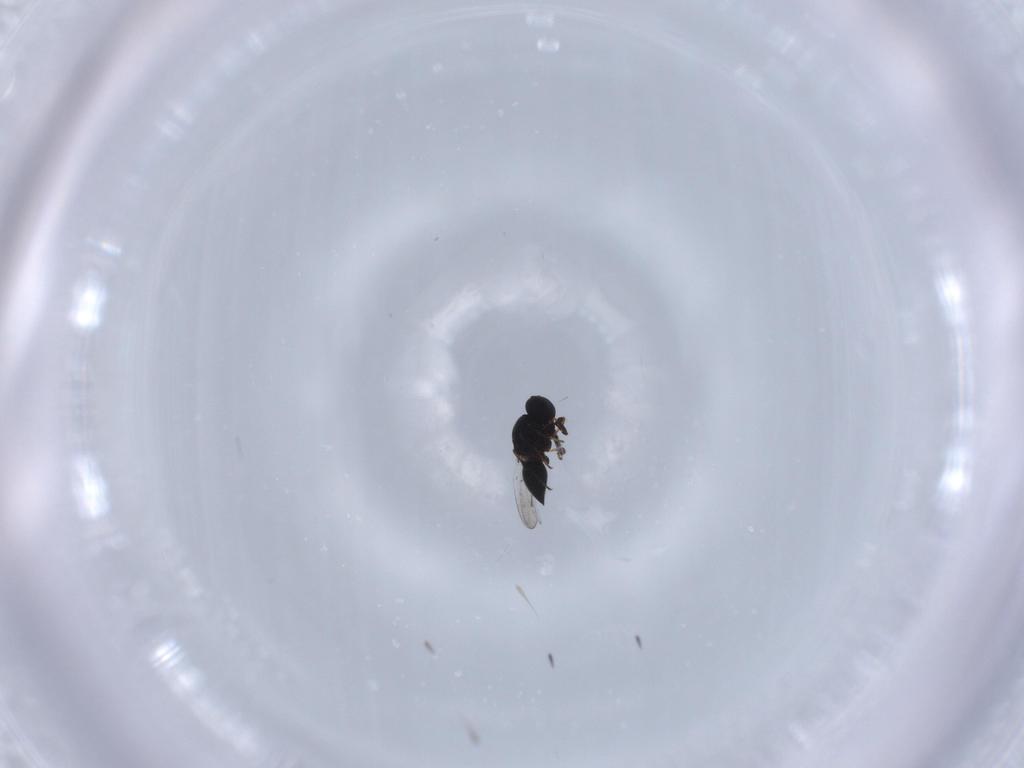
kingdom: Animalia
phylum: Arthropoda
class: Insecta
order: Hymenoptera
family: Platygastridae
